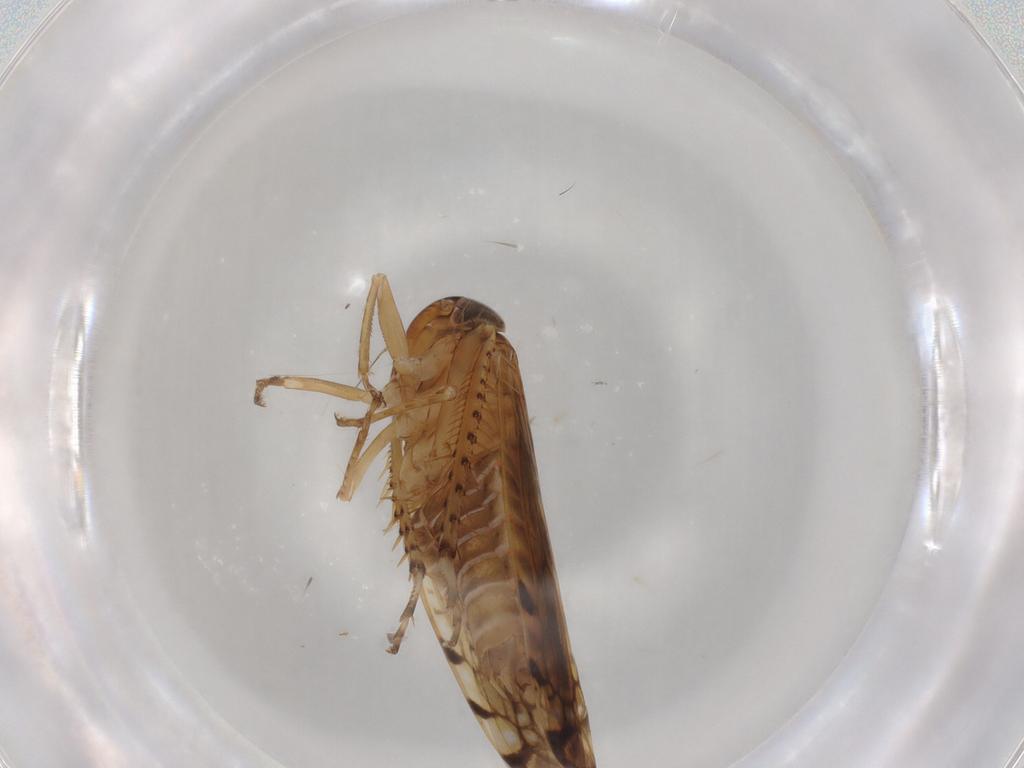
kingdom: Animalia
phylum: Arthropoda
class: Insecta
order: Hemiptera
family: Cicadellidae
